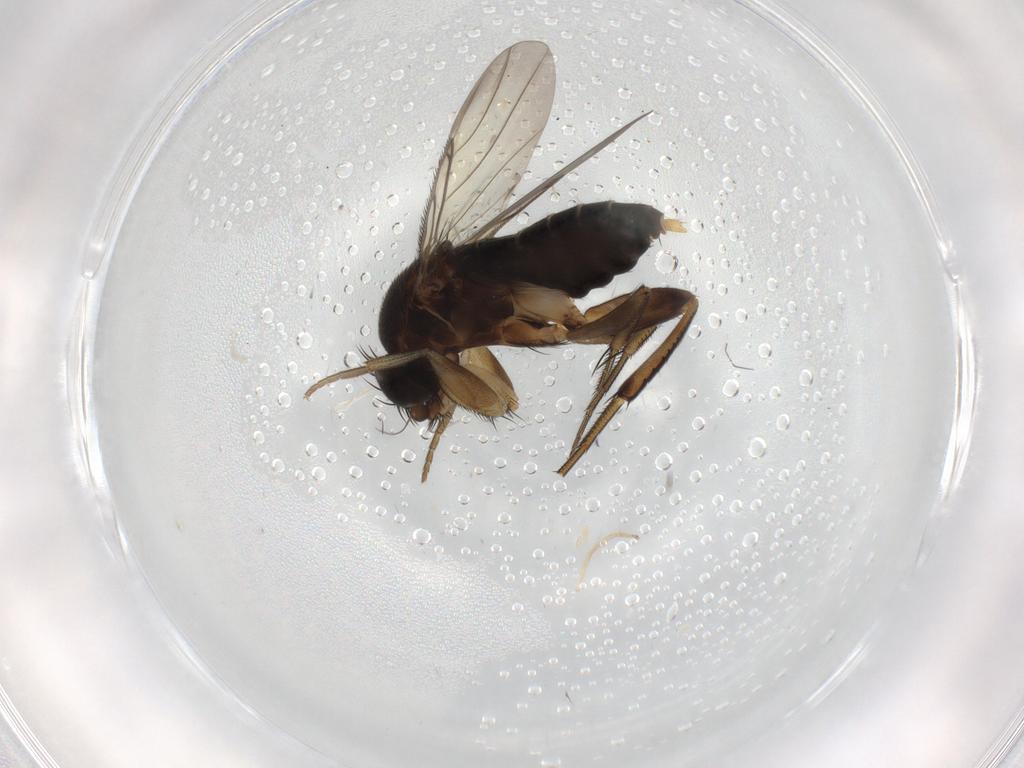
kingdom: Animalia
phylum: Arthropoda
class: Insecta
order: Diptera
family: Phoridae
